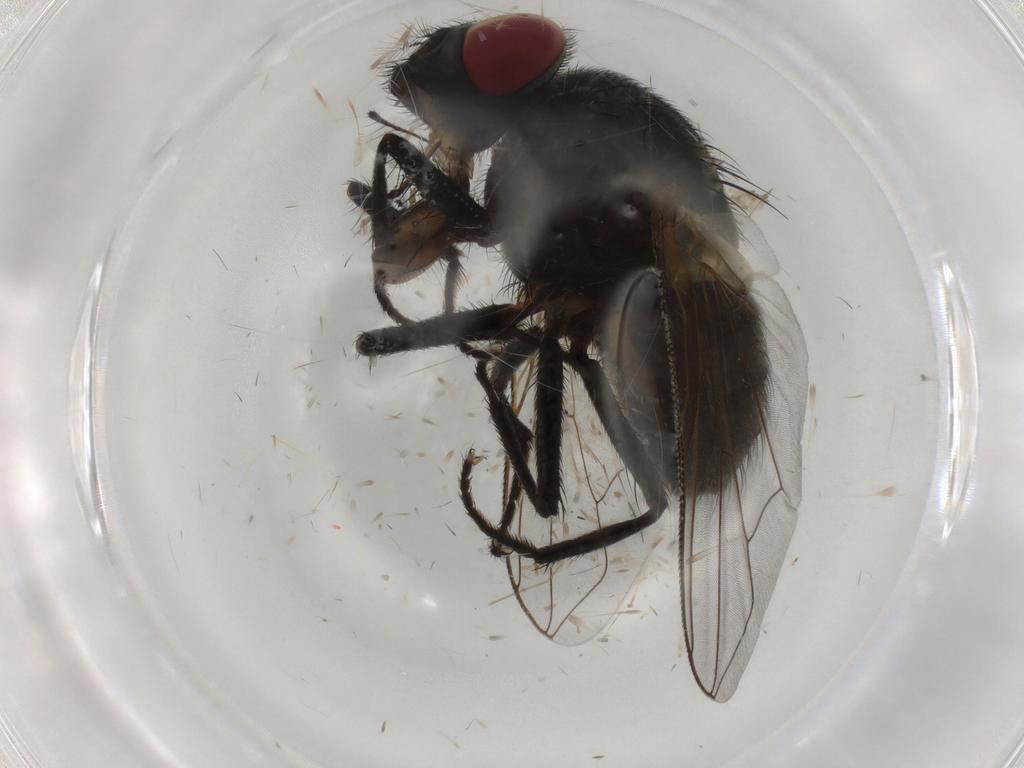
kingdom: Animalia
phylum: Arthropoda
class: Insecta
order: Diptera
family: Muscidae
